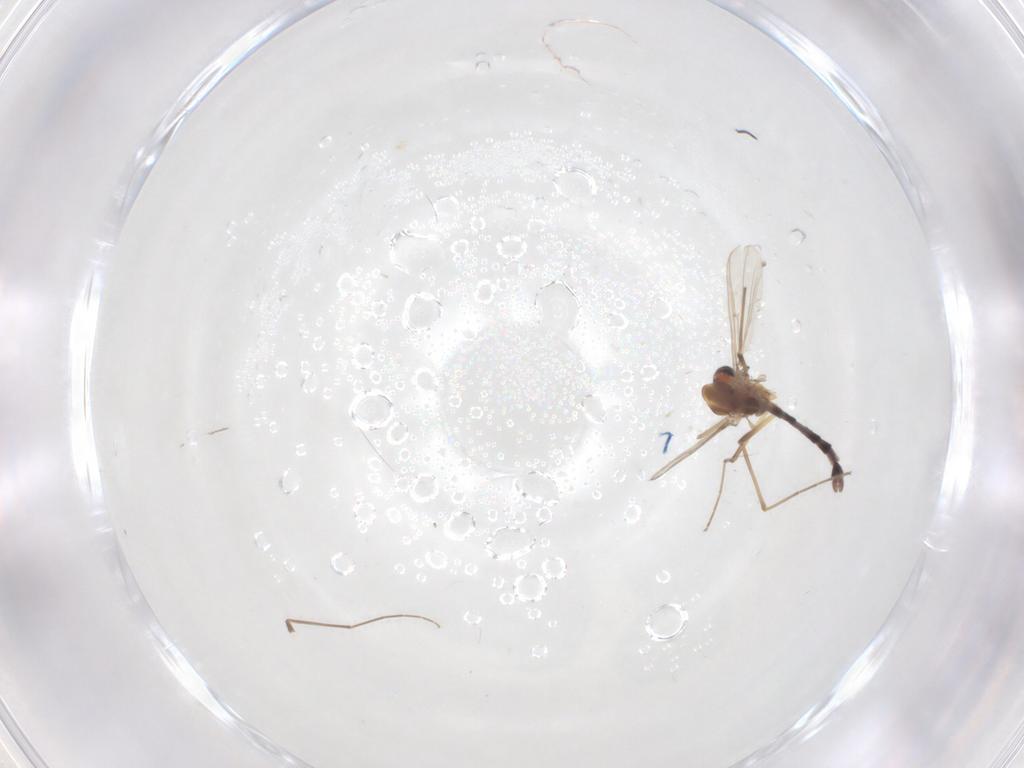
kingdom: Animalia
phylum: Arthropoda
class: Insecta
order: Diptera
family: Chironomidae
